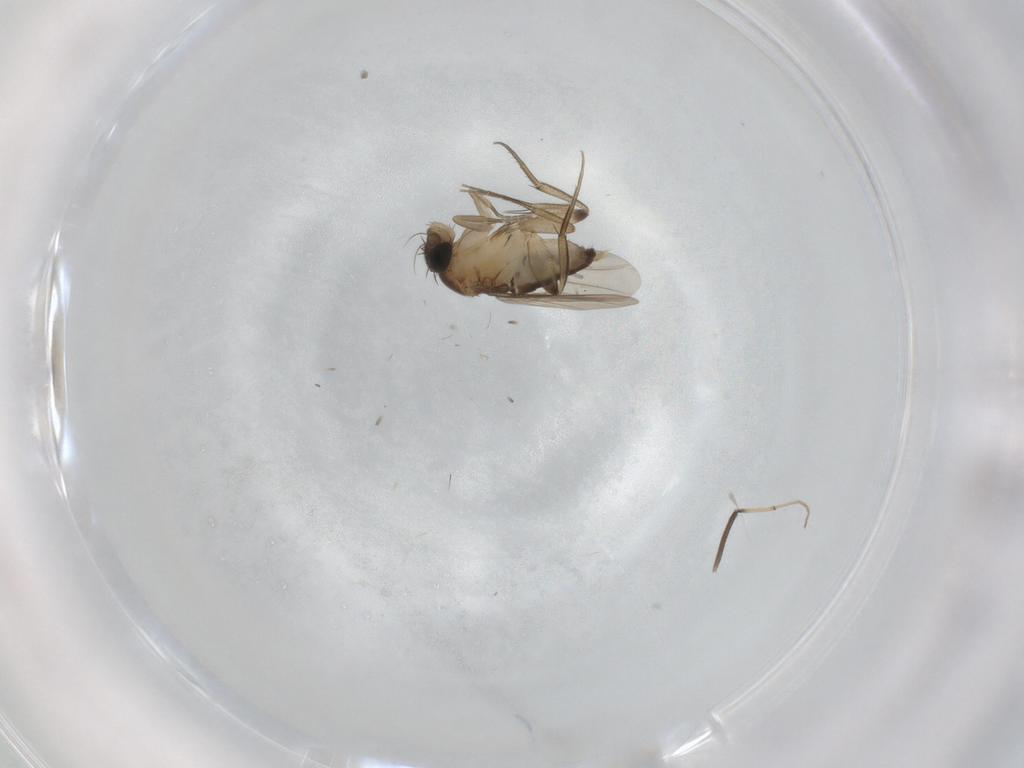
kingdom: Animalia
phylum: Arthropoda
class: Insecta
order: Diptera
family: Phoridae
